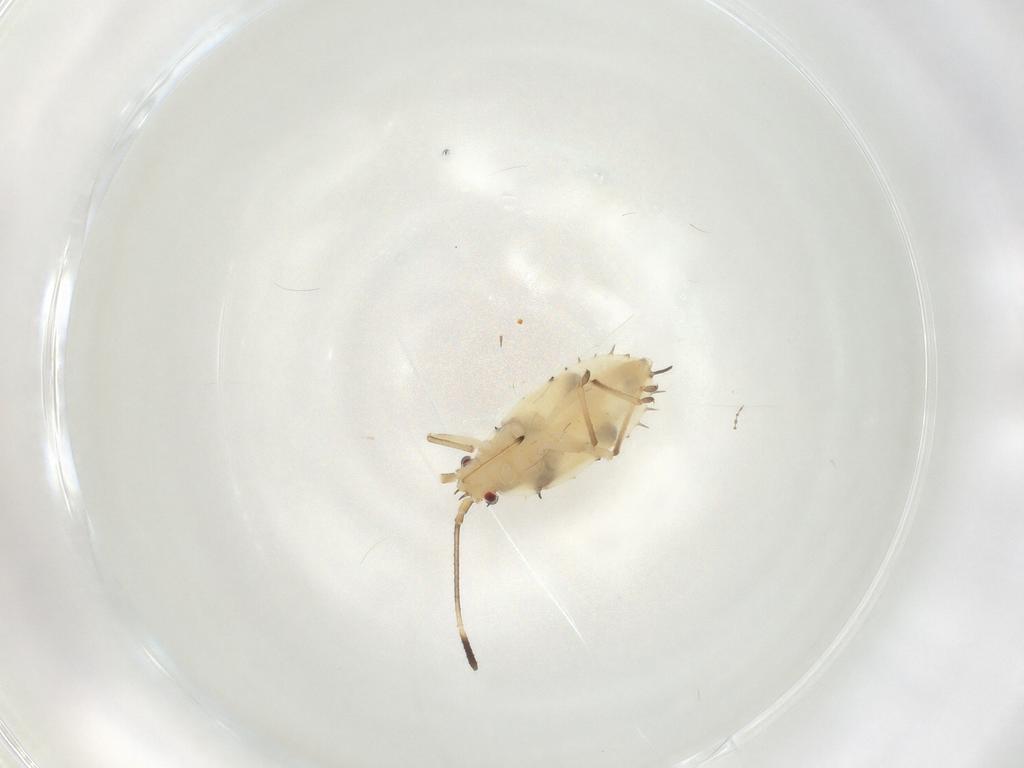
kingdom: Animalia
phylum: Arthropoda
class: Insecta
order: Hemiptera
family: Tingidae
